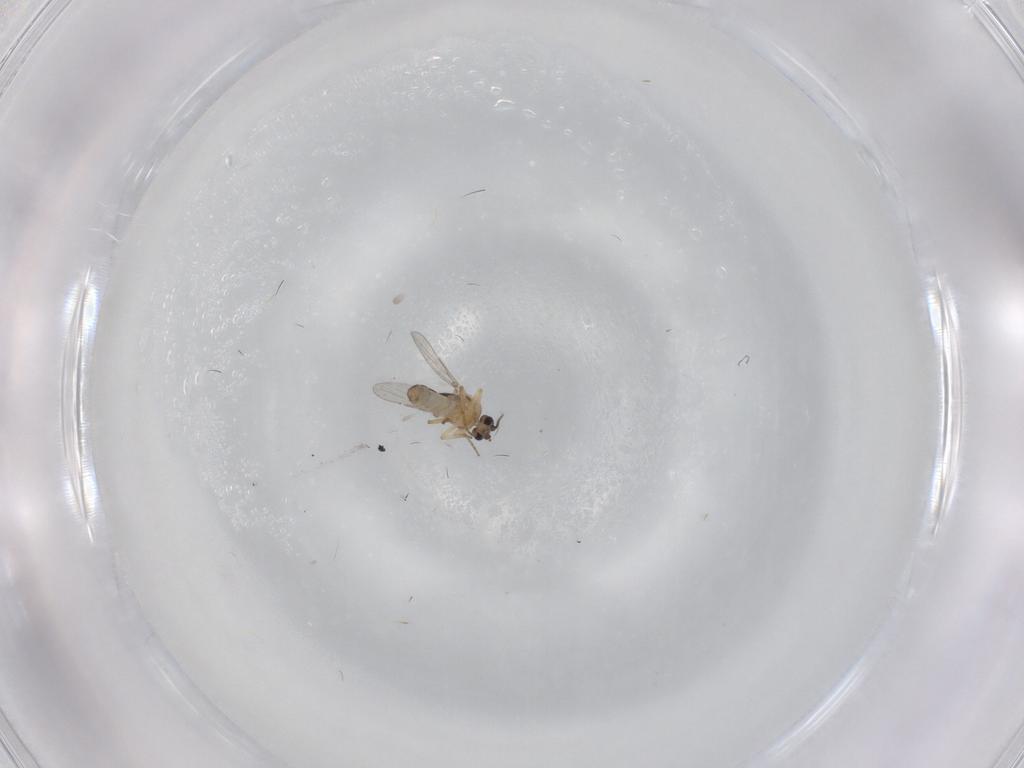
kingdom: Animalia
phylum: Arthropoda
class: Insecta
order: Diptera
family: Ceratopogonidae
